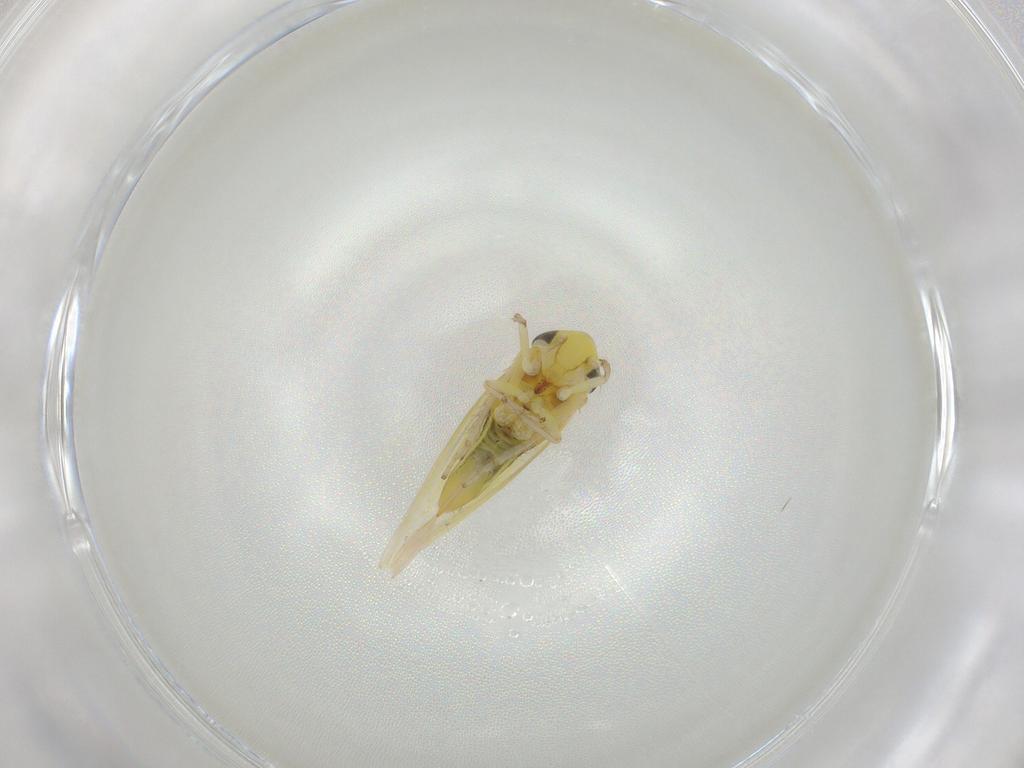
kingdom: Animalia
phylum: Arthropoda
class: Insecta
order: Hemiptera
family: Cicadellidae
